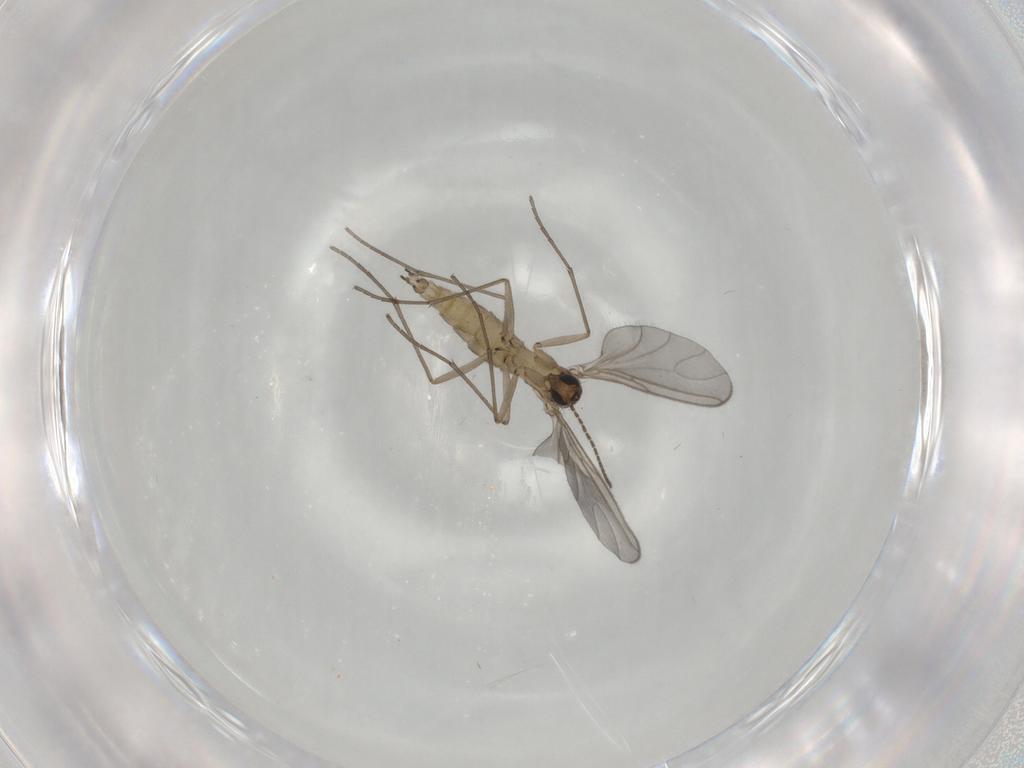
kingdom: Animalia
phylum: Arthropoda
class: Insecta
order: Diptera
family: Sciaridae
